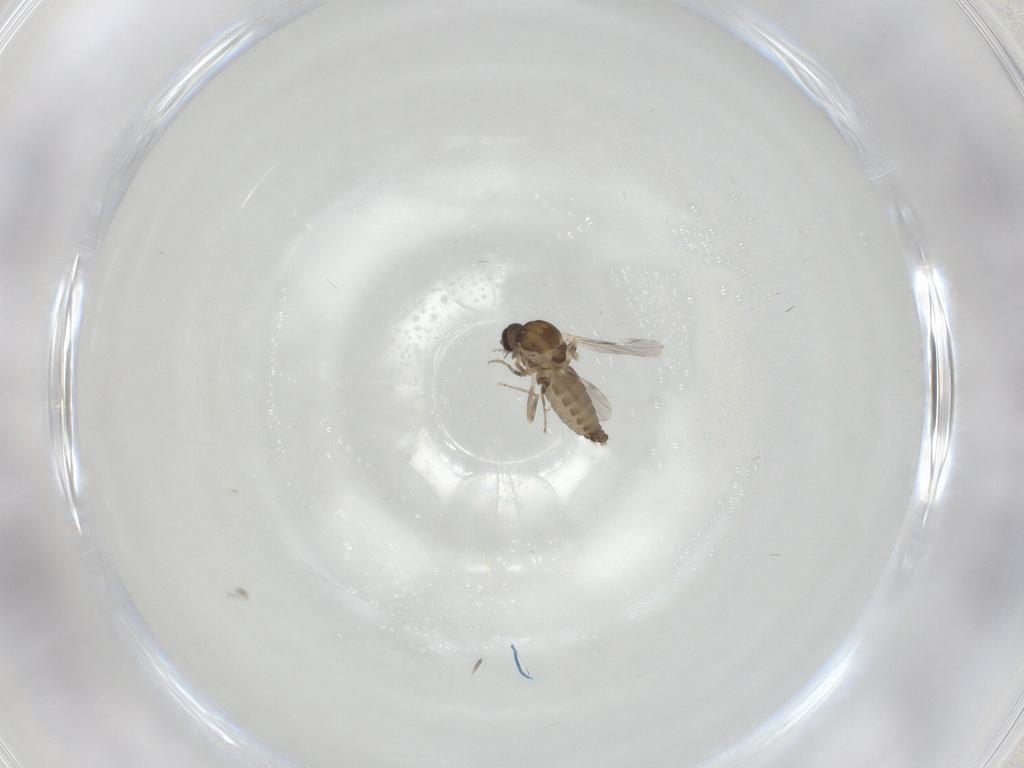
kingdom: Animalia
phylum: Arthropoda
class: Insecta
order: Diptera
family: Ceratopogonidae
